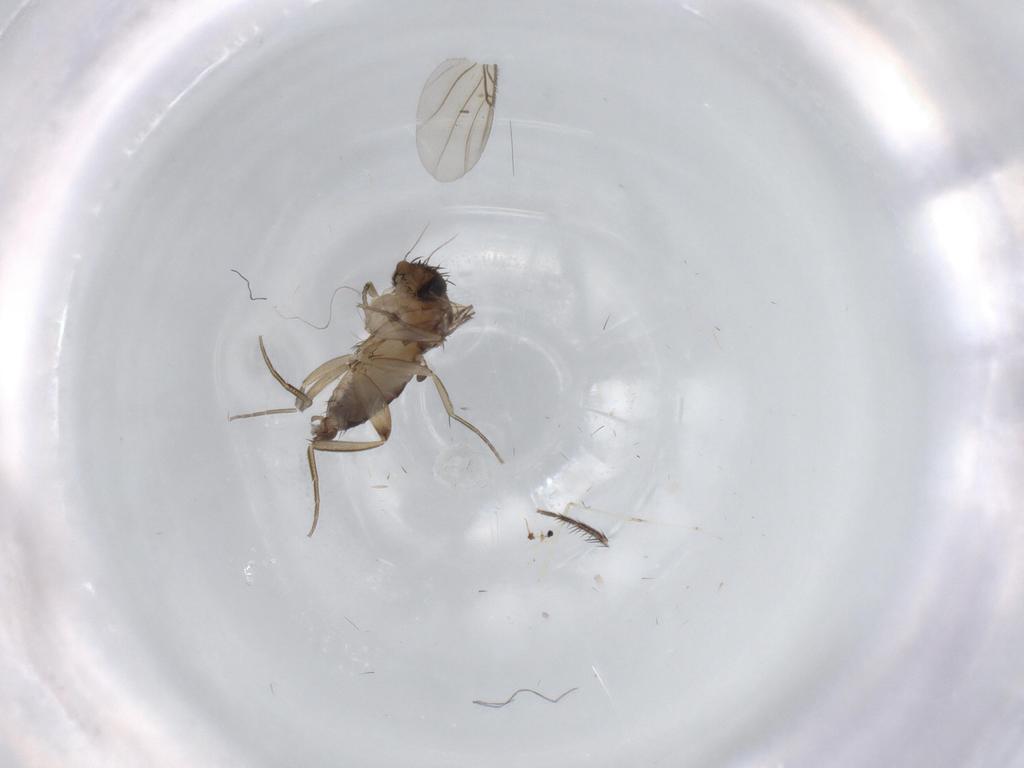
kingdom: Animalia
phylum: Arthropoda
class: Insecta
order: Diptera
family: Phoridae
